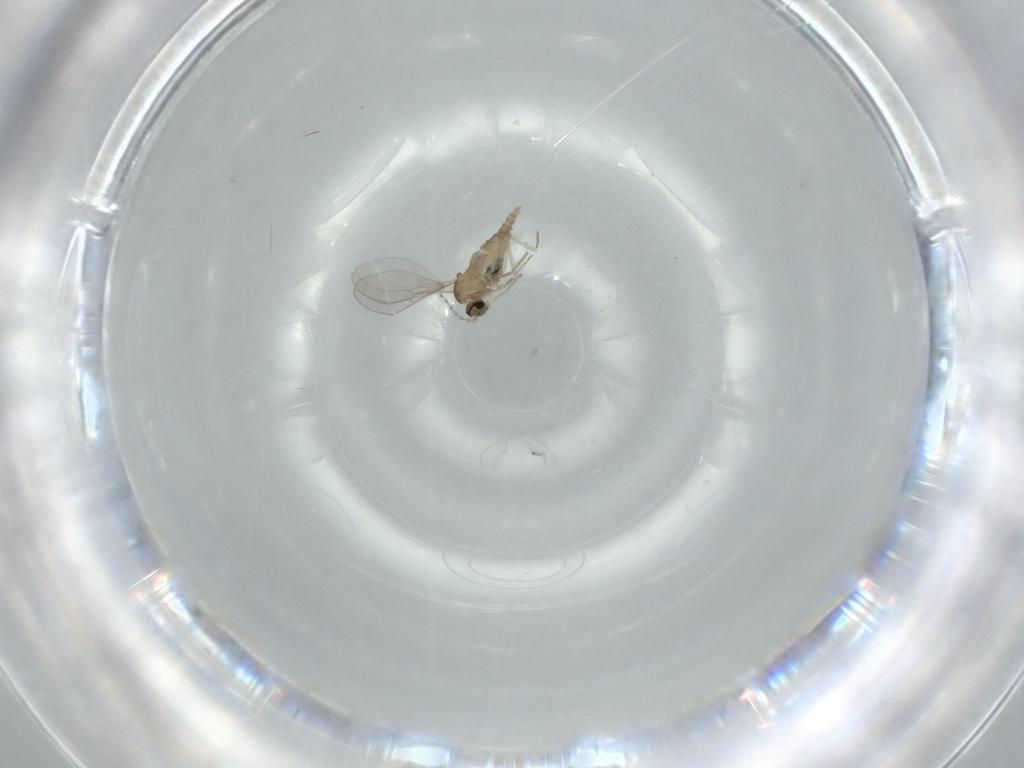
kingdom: Animalia
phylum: Arthropoda
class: Insecta
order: Diptera
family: Cecidomyiidae
